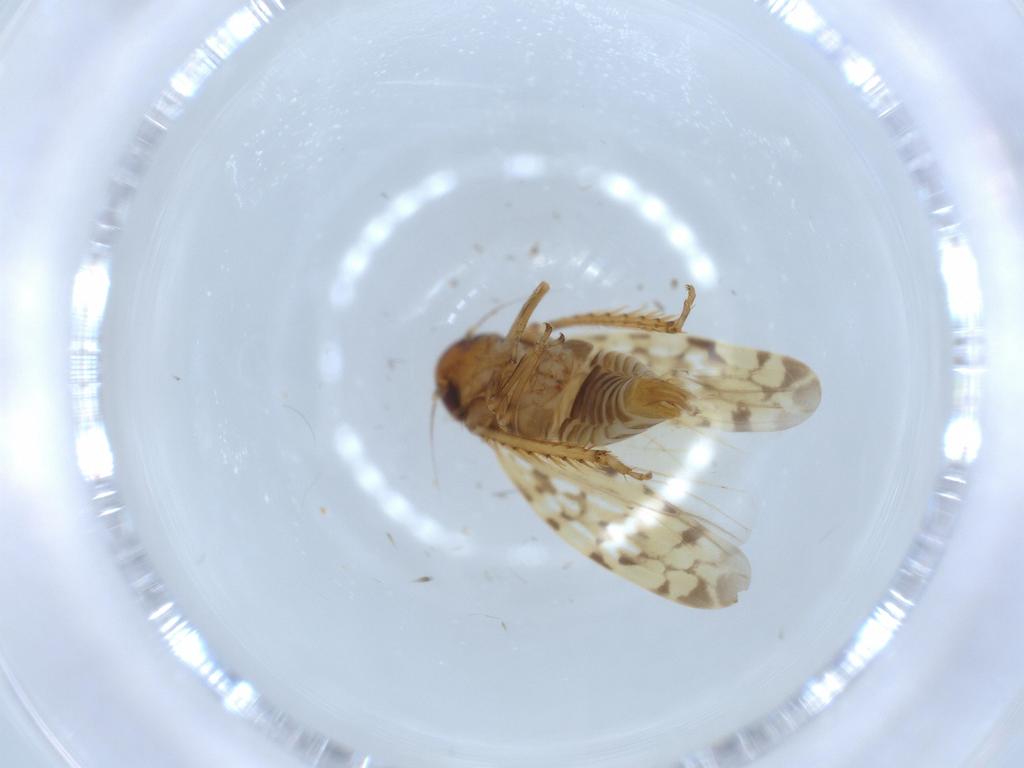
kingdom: Animalia
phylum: Arthropoda
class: Insecta
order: Hemiptera
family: Cicadellidae
